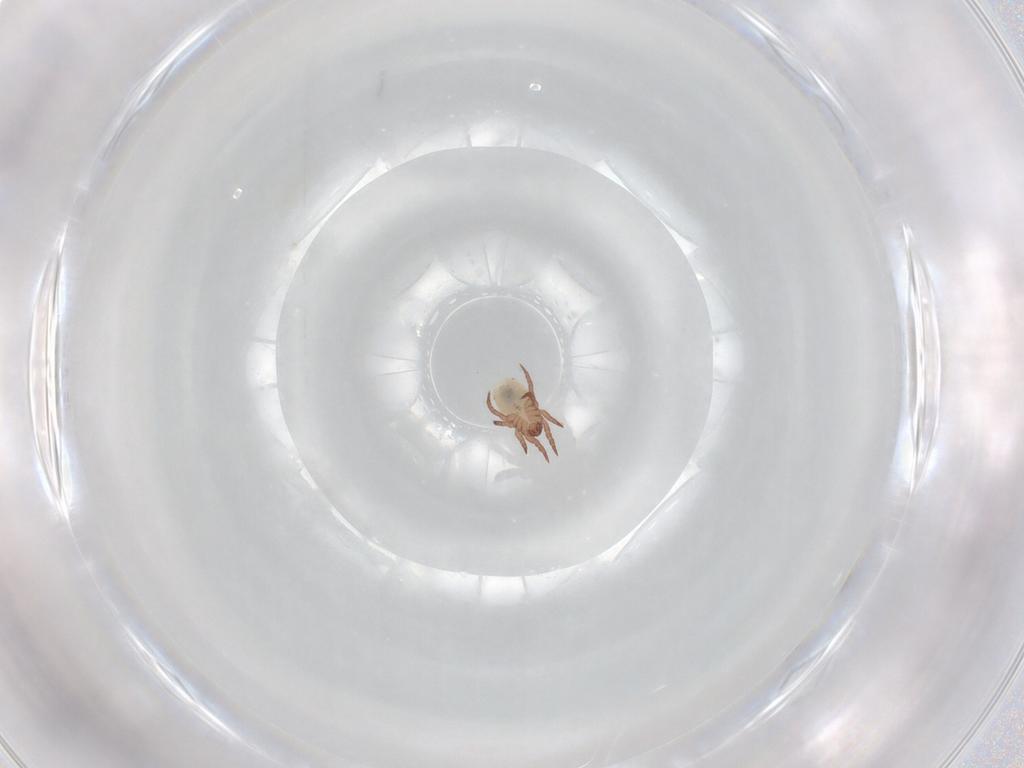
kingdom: Animalia
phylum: Arthropoda
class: Arachnida
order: Sarcoptiformes
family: Nothridae
